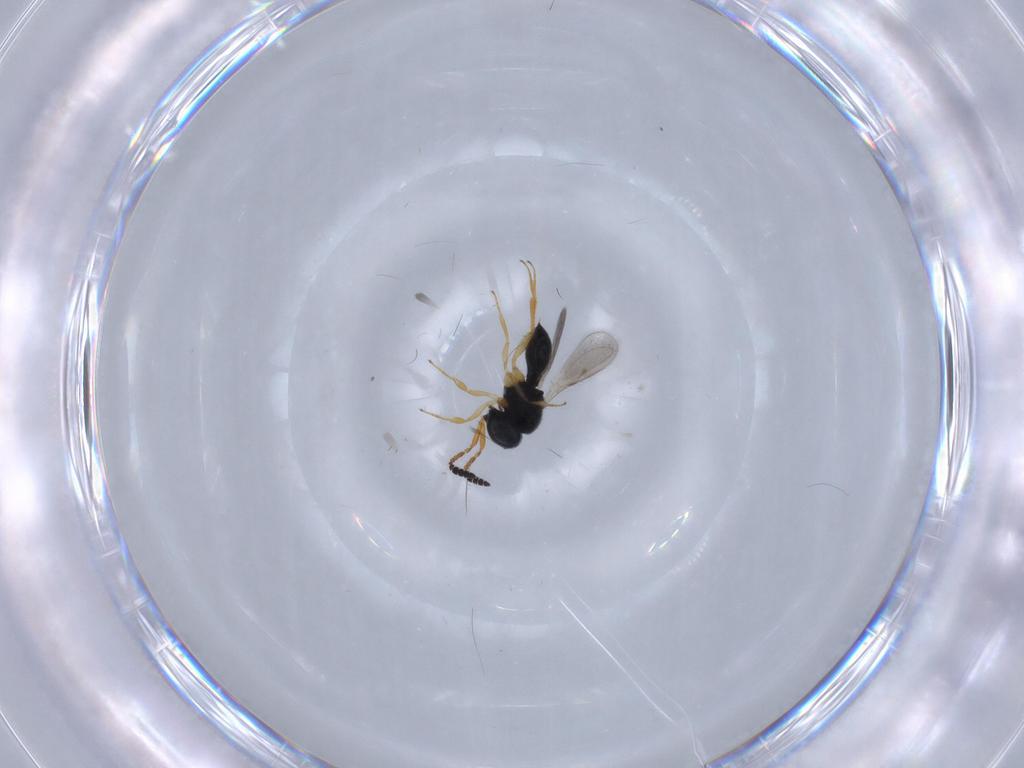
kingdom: Animalia
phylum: Arthropoda
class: Insecta
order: Hymenoptera
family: Scelionidae
